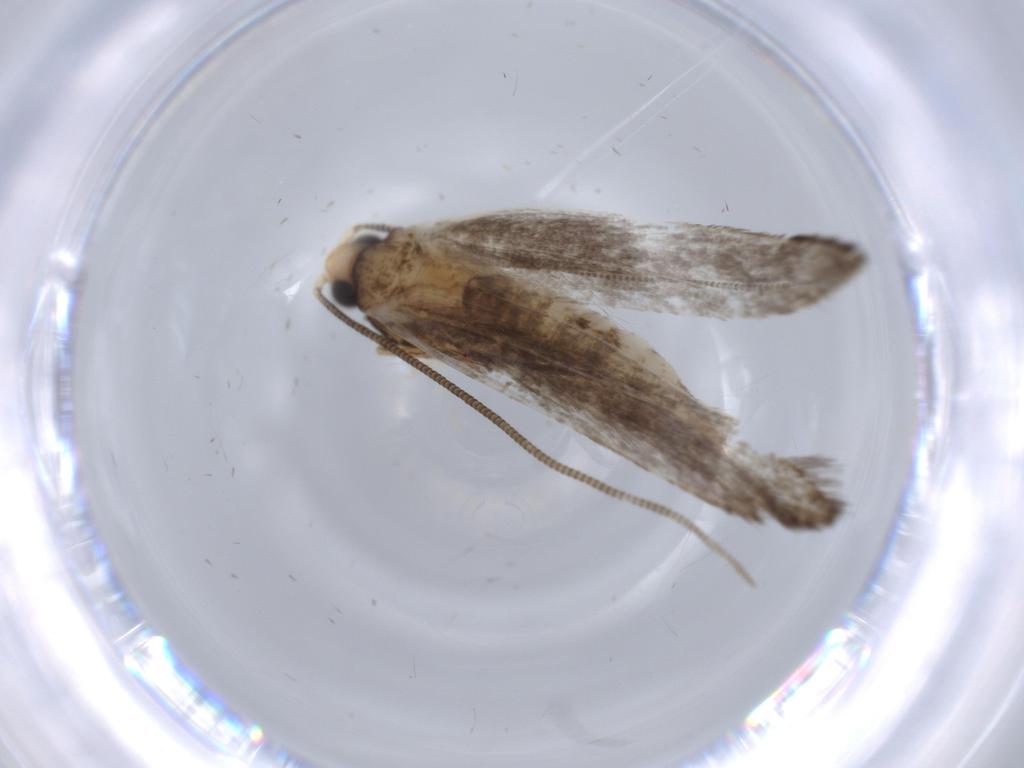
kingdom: Animalia
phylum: Arthropoda
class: Insecta
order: Lepidoptera
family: Tineidae
